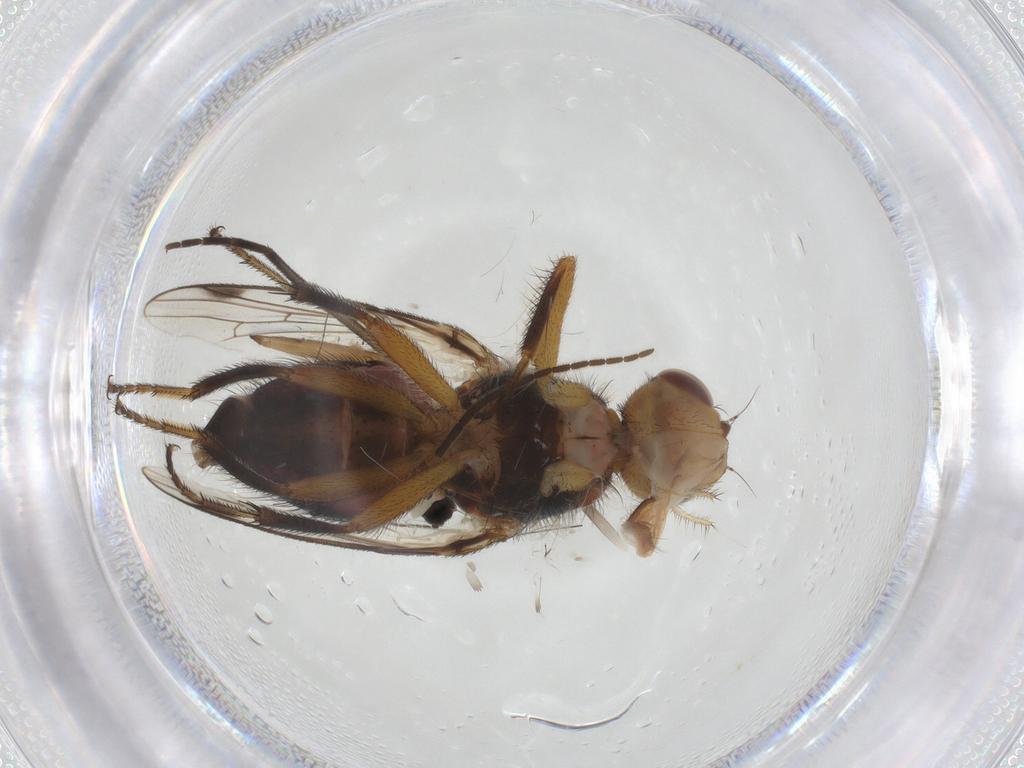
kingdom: Animalia
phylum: Arthropoda
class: Insecta
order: Diptera
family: Richardiidae
